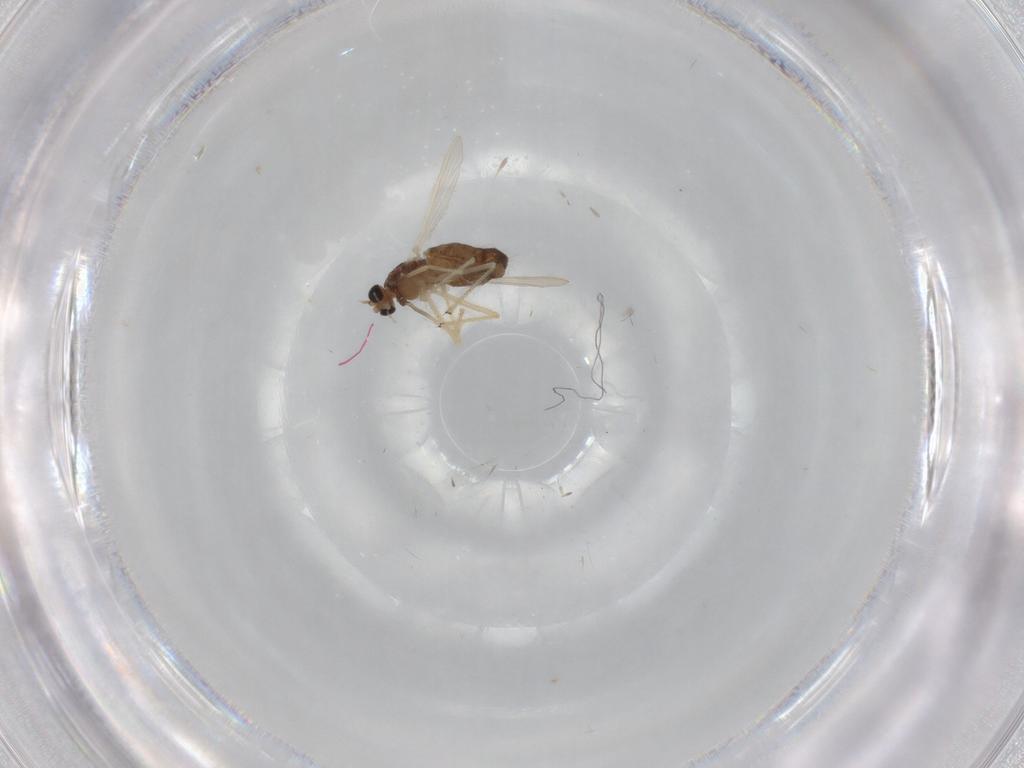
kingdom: Animalia
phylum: Arthropoda
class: Insecta
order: Diptera
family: Chironomidae
